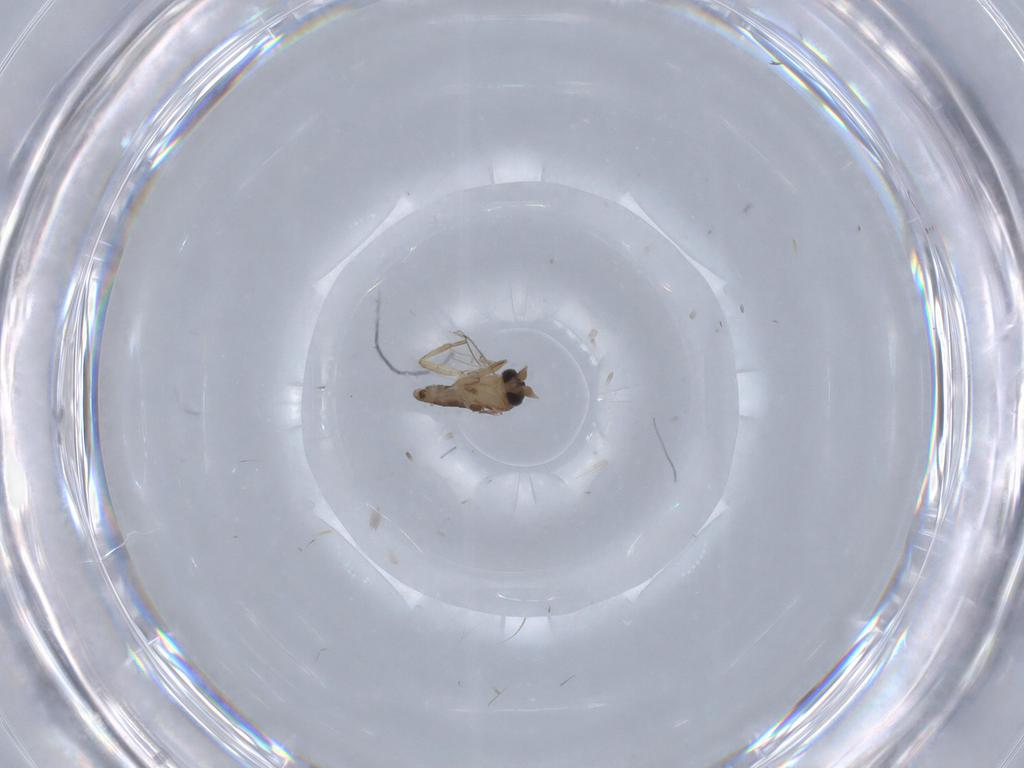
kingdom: Animalia
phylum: Arthropoda
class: Insecta
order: Diptera
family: Phoridae
